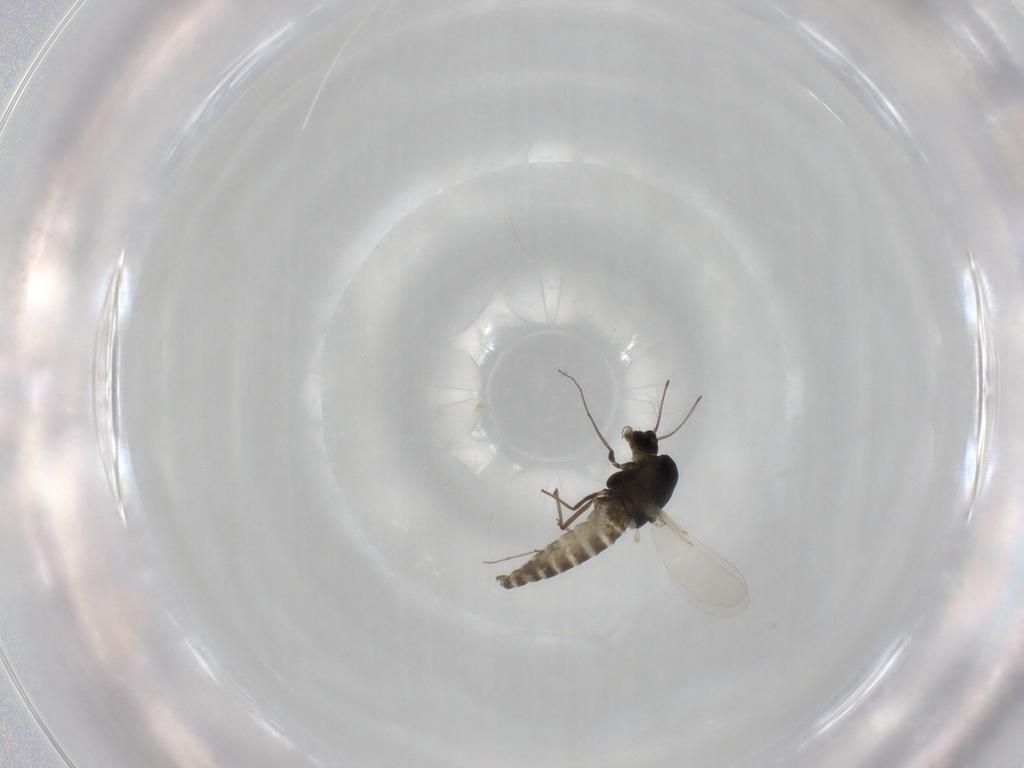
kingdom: Animalia
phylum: Arthropoda
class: Insecta
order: Diptera
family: Chironomidae
